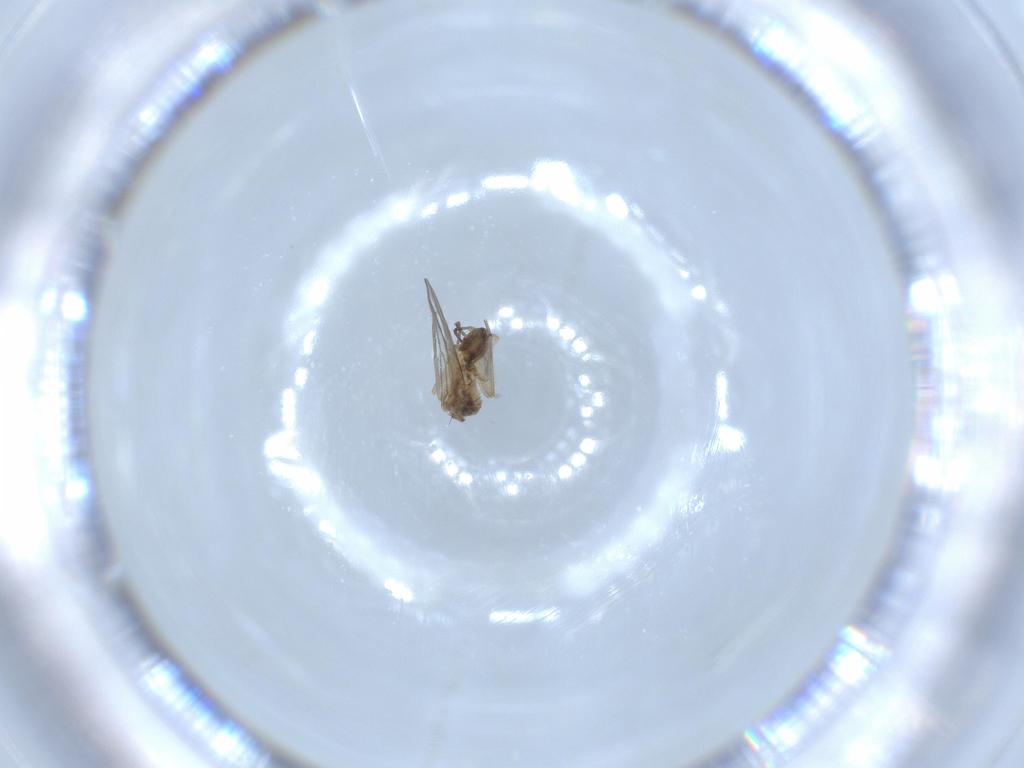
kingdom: Animalia
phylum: Arthropoda
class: Insecta
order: Diptera
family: Sciaridae
